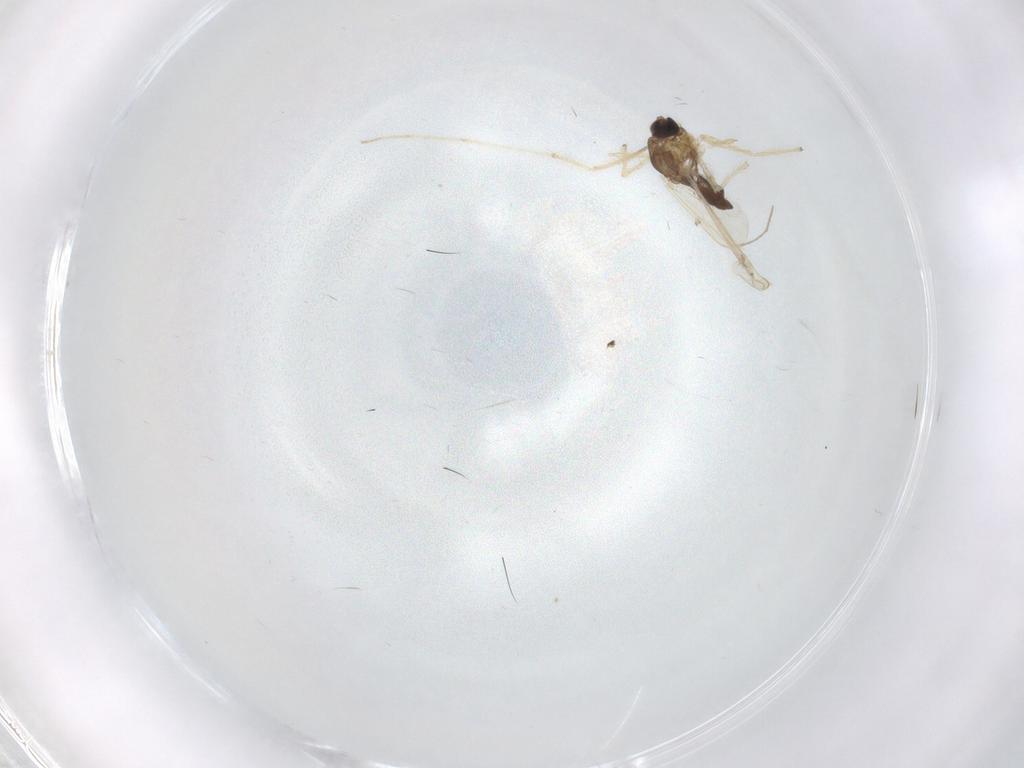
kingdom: Animalia
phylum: Arthropoda
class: Insecta
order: Diptera
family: Chironomidae
